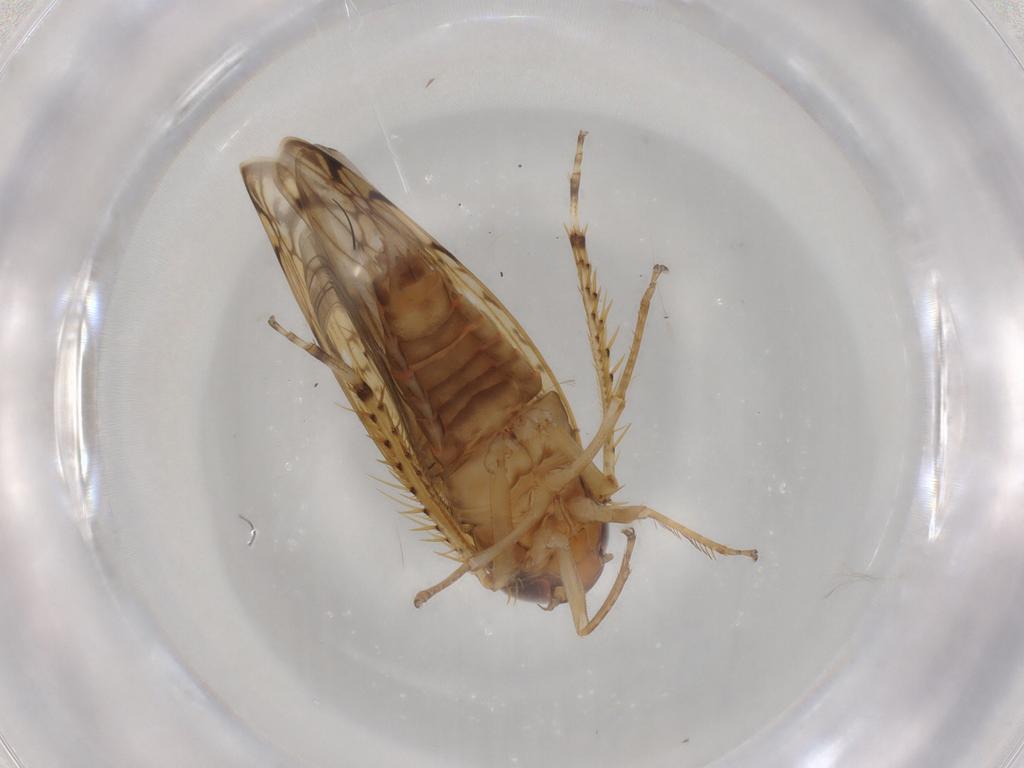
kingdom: Animalia
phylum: Arthropoda
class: Insecta
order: Hemiptera
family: Cicadellidae
